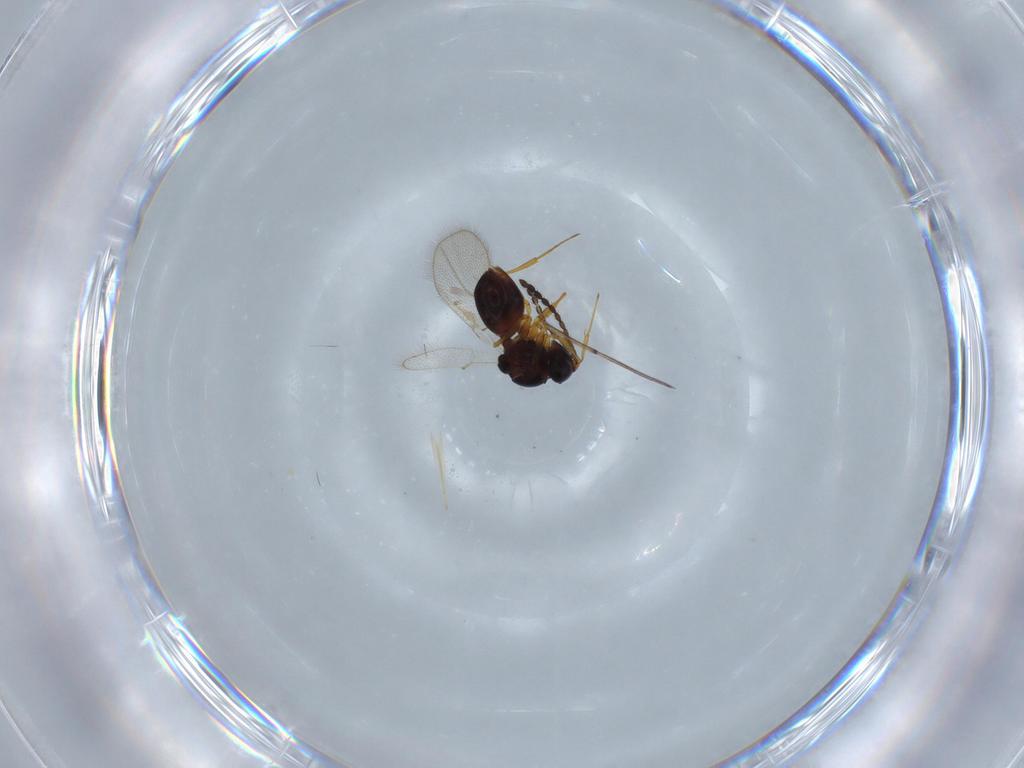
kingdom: Animalia
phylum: Arthropoda
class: Insecta
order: Hymenoptera
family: Figitidae
